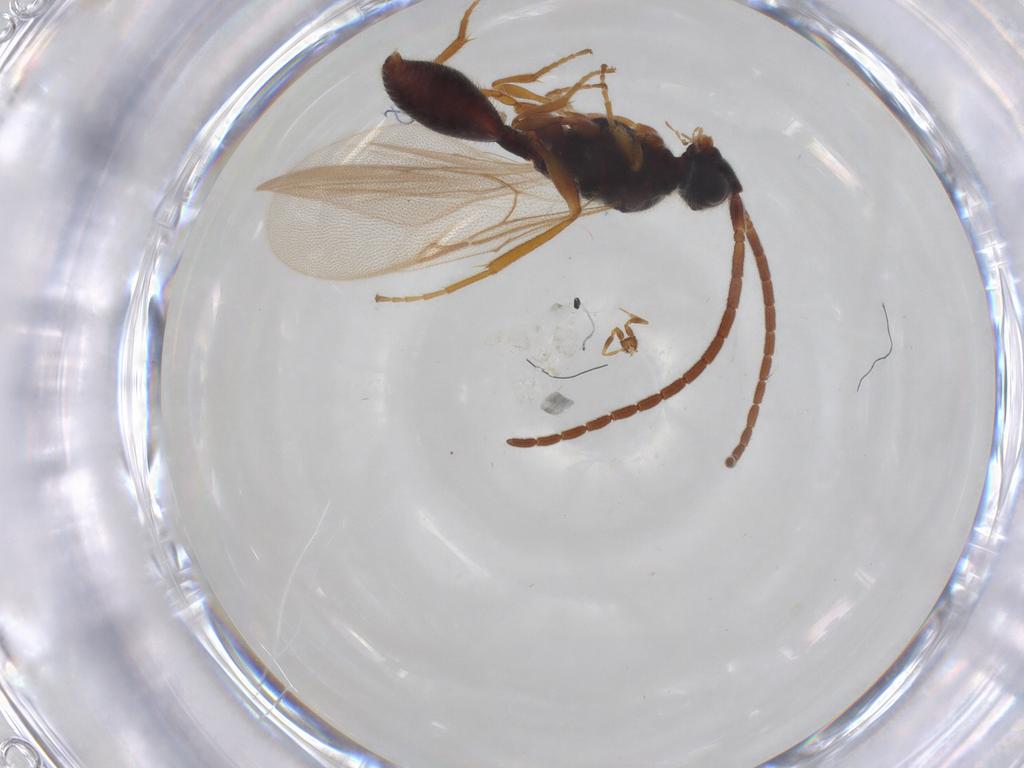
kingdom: Animalia
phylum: Arthropoda
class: Insecta
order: Hymenoptera
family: Diapriidae
